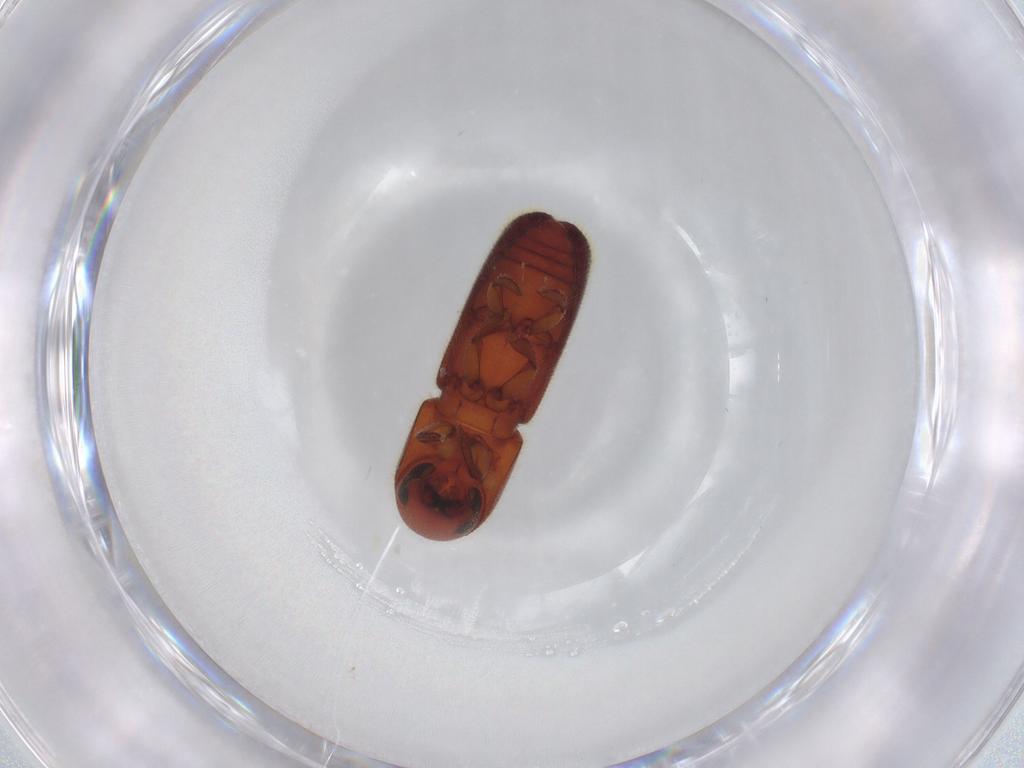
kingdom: Animalia
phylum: Arthropoda
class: Insecta
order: Coleoptera
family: Curculionidae
